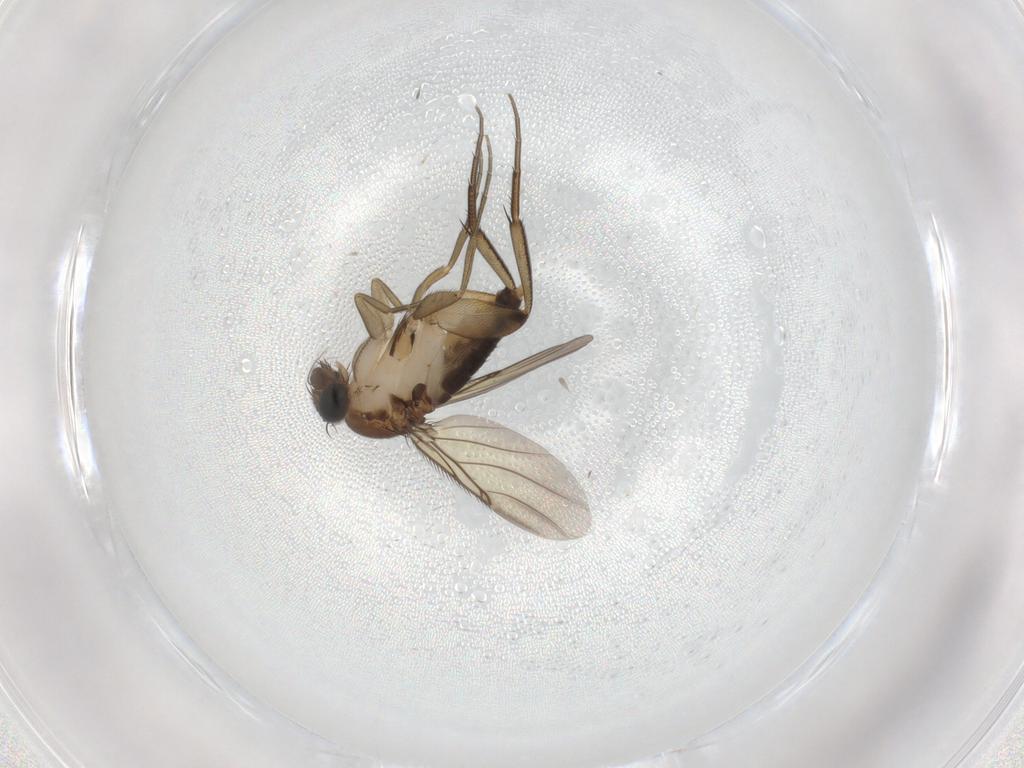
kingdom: Animalia
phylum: Arthropoda
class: Insecta
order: Diptera
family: Phoridae
